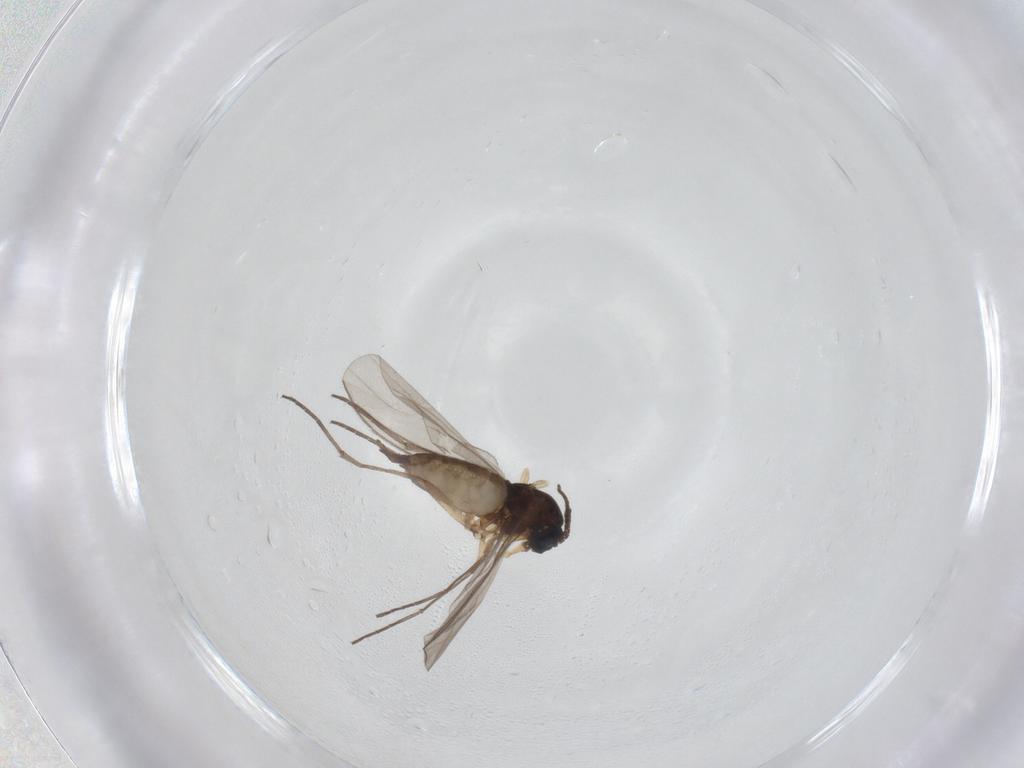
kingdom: Animalia
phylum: Arthropoda
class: Insecta
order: Diptera
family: Sciaridae
